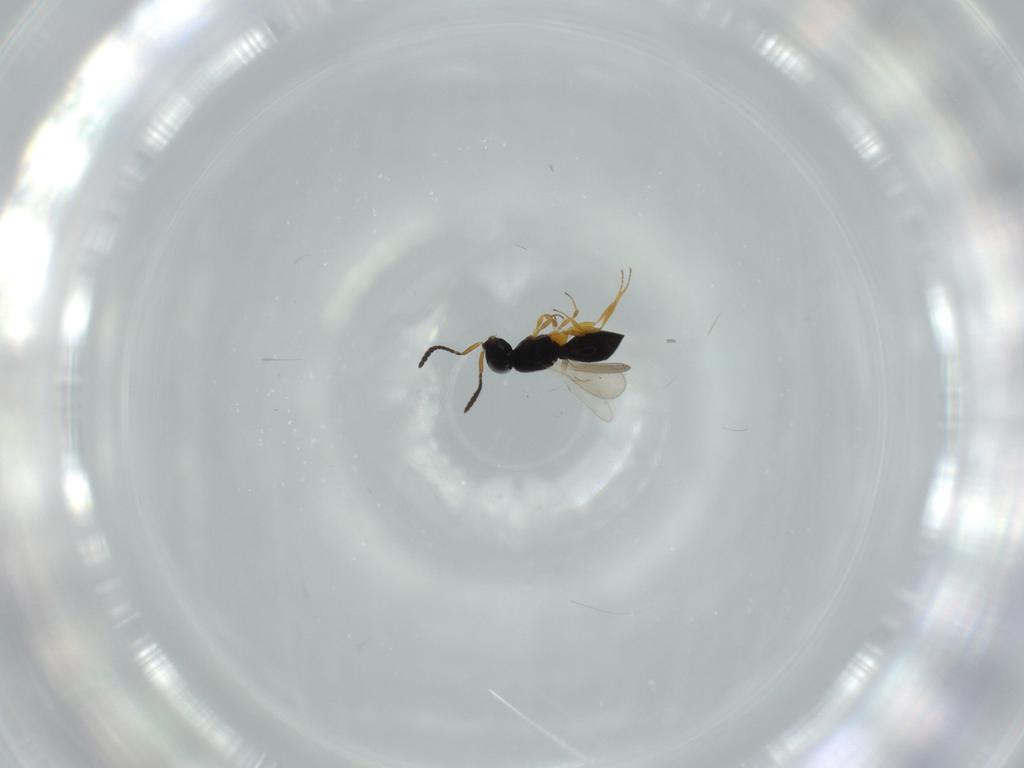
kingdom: Animalia
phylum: Arthropoda
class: Insecta
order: Hymenoptera
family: Scelionidae
